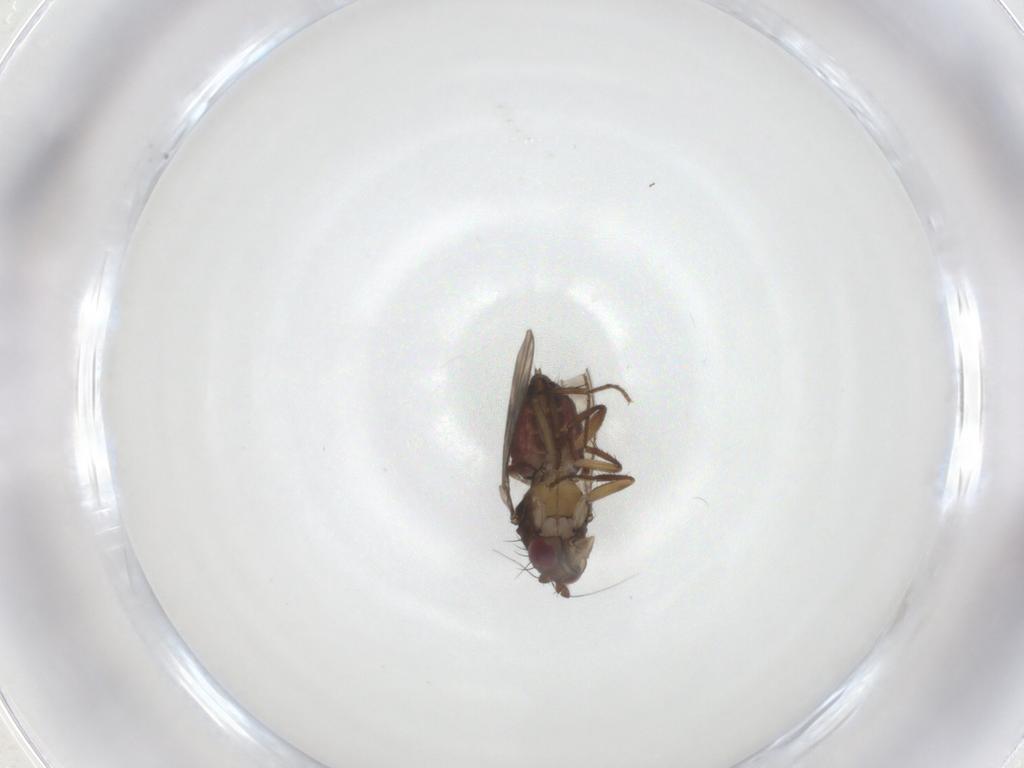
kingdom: Animalia
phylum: Arthropoda
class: Insecta
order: Diptera
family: Sphaeroceridae
